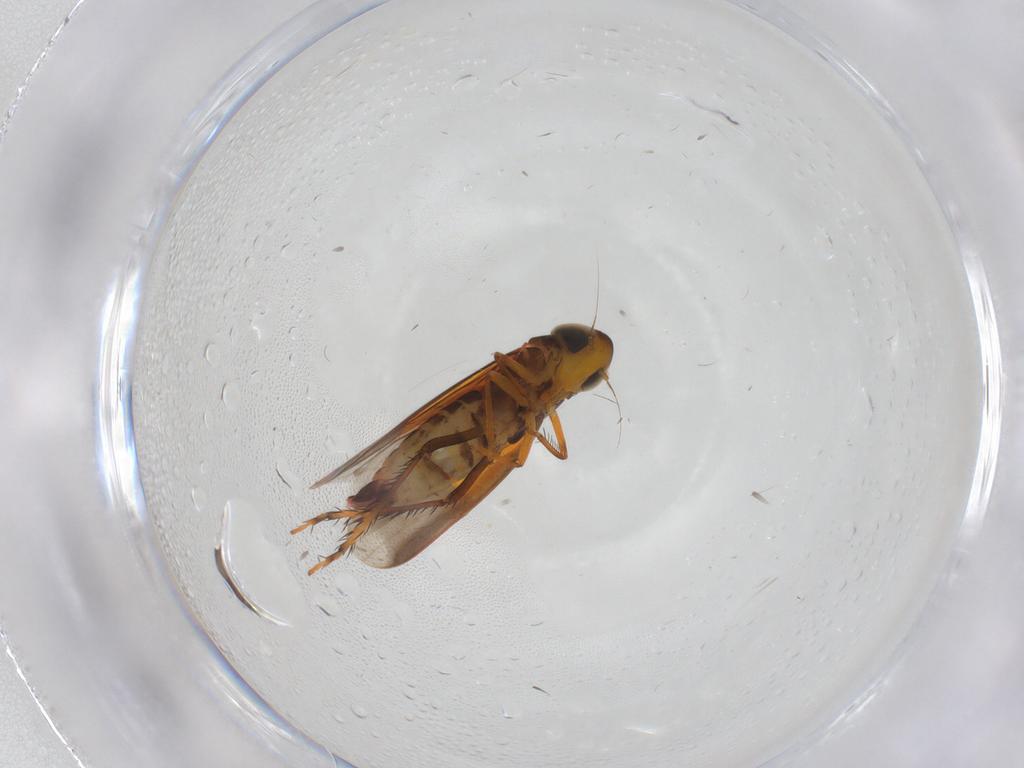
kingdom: Animalia
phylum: Arthropoda
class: Insecta
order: Hemiptera
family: Cicadellidae
